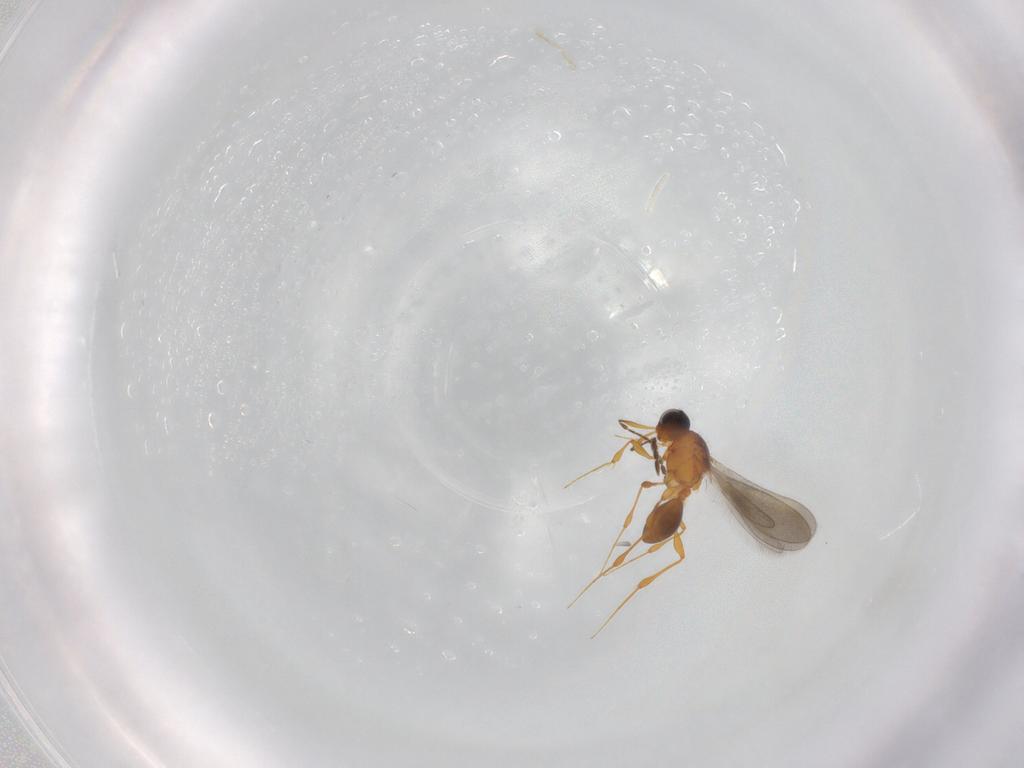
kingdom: Animalia
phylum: Arthropoda
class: Insecta
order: Hymenoptera
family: Platygastridae
